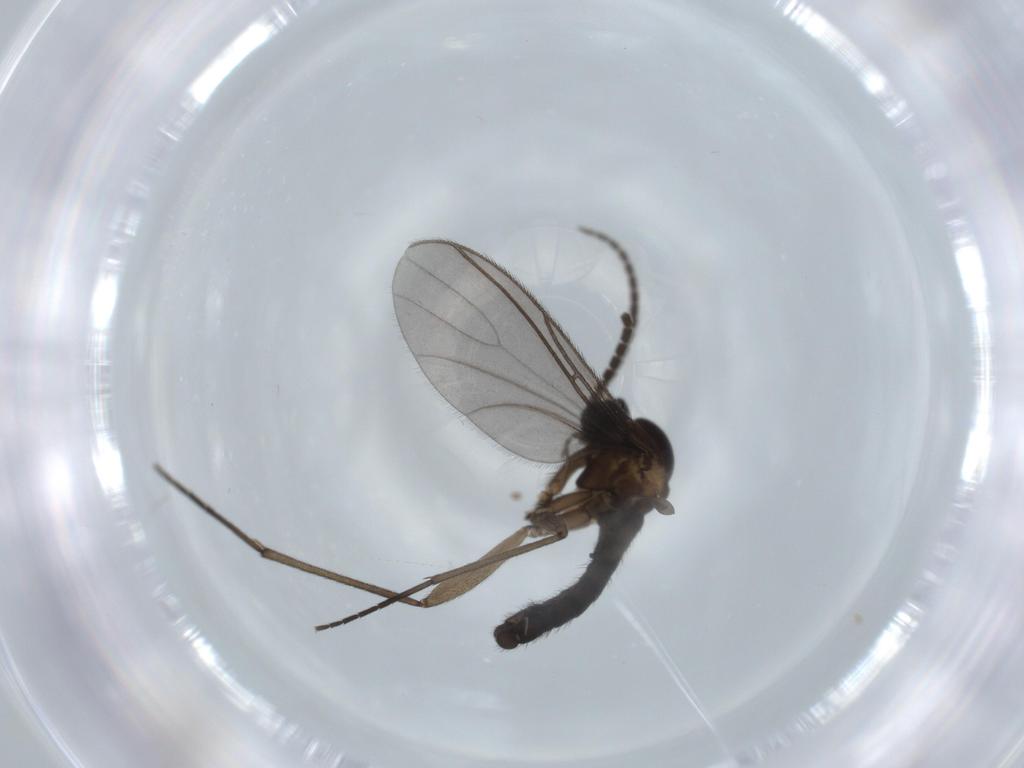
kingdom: Animalia
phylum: Arthropoda
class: Insecta
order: Diptera
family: Sciaridae
